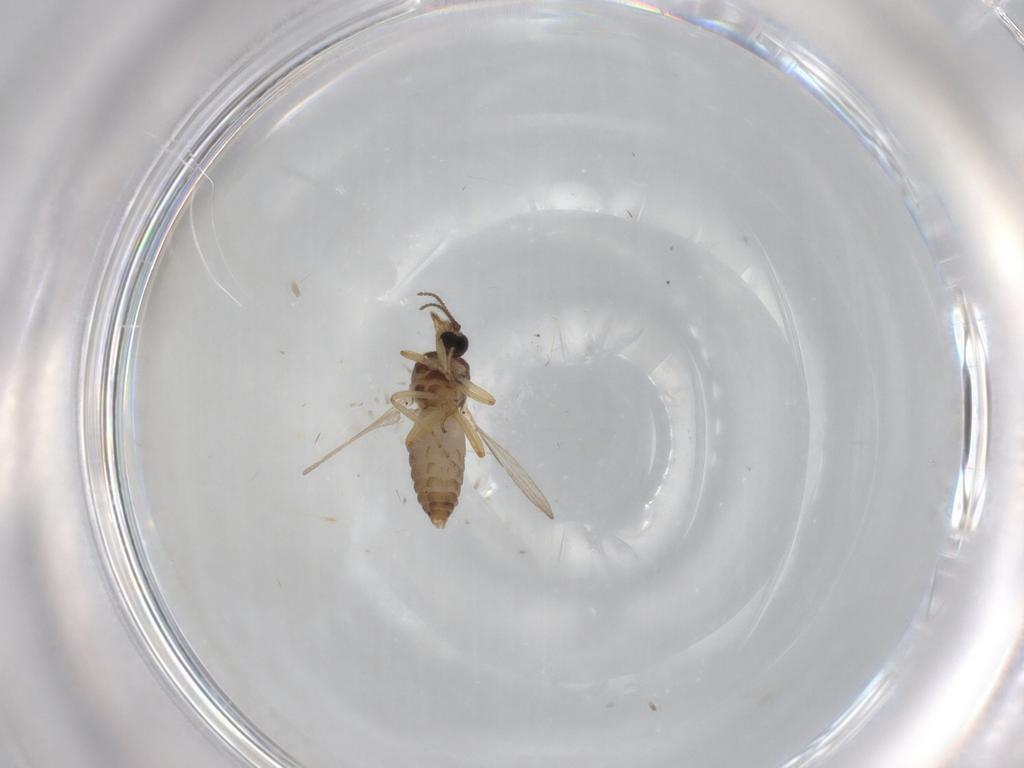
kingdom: Animalia
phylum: Arthropoda
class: Insecta
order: Diptera
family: Ceratopogonidae
